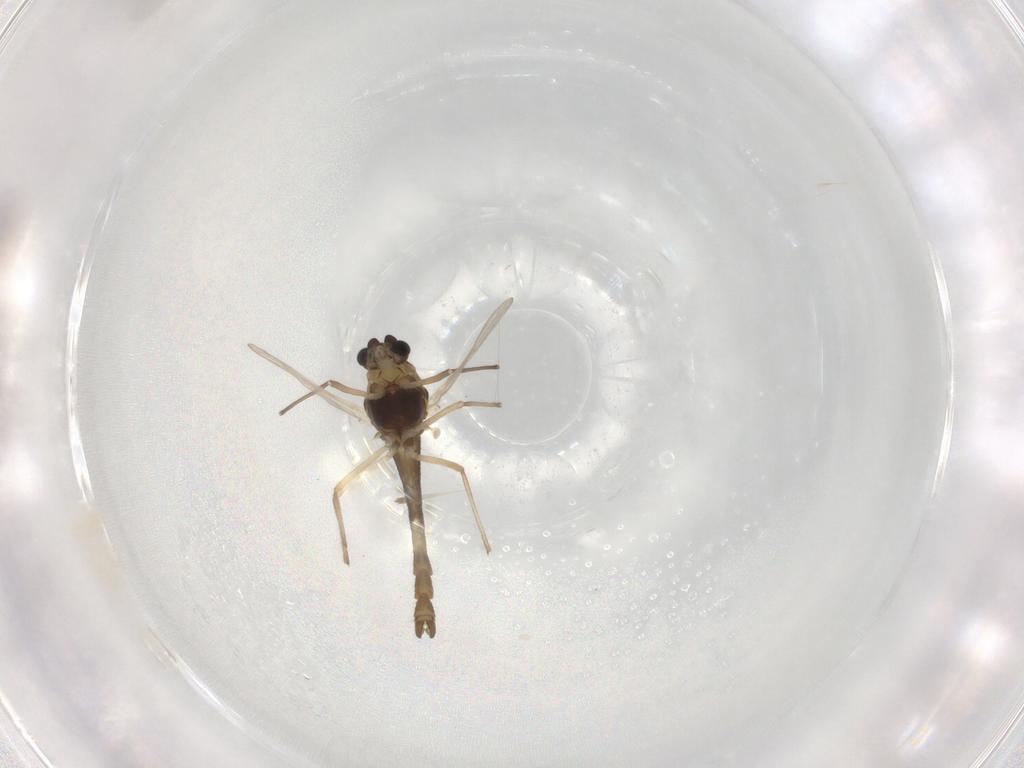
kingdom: Animalia
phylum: Arthropoda
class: Insecta
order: Diptera
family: Chironomidae
